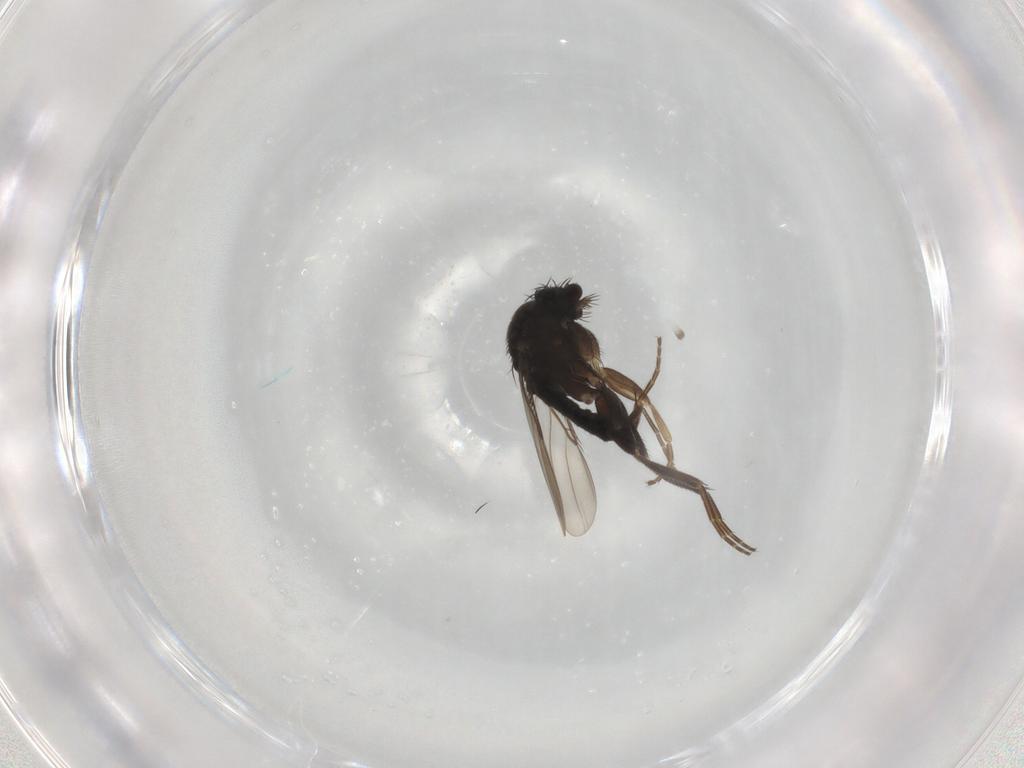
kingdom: Animalia
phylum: Arthropoda
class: Insecta
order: Diptera
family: Phoridae
